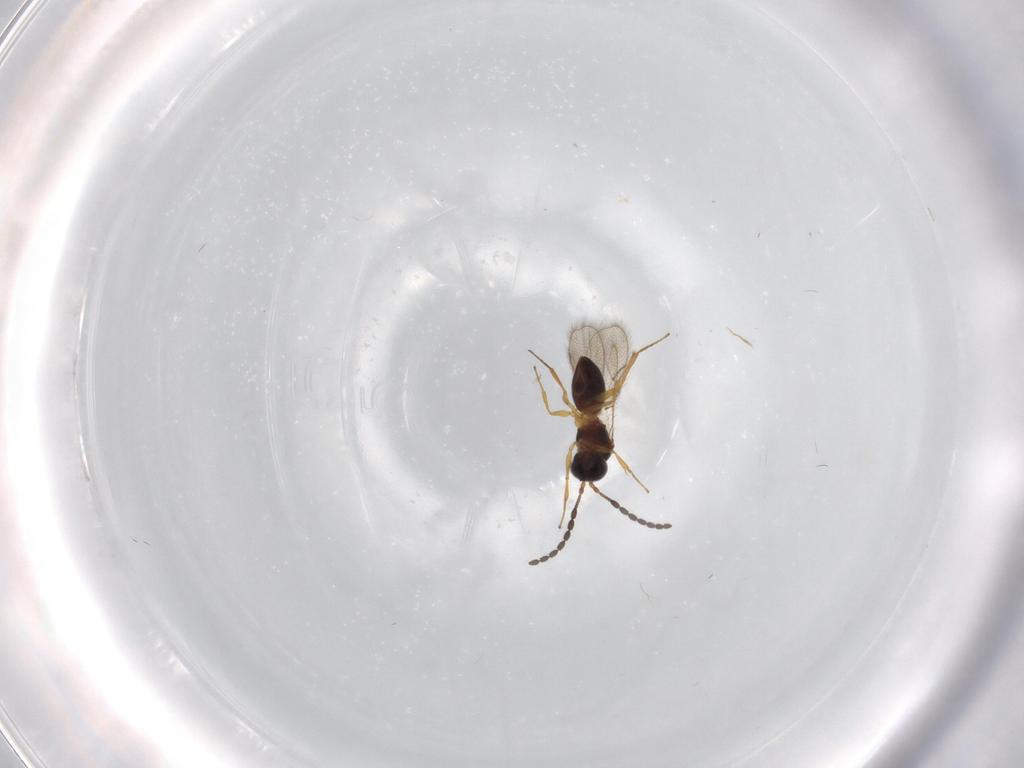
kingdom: Animalia
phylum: Arthropoda
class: Insecta
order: Hymenoptera
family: Figitidae
